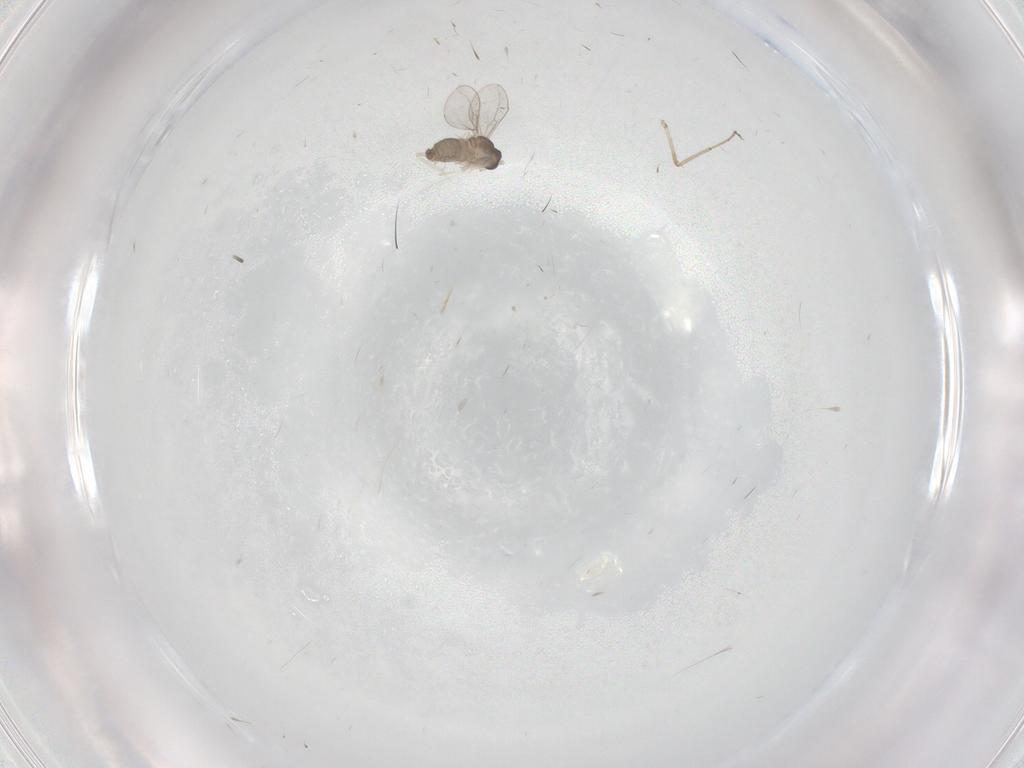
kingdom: Animalia
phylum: Arthropoda
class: Insecta
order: Diptera
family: Cecidomyiidae
